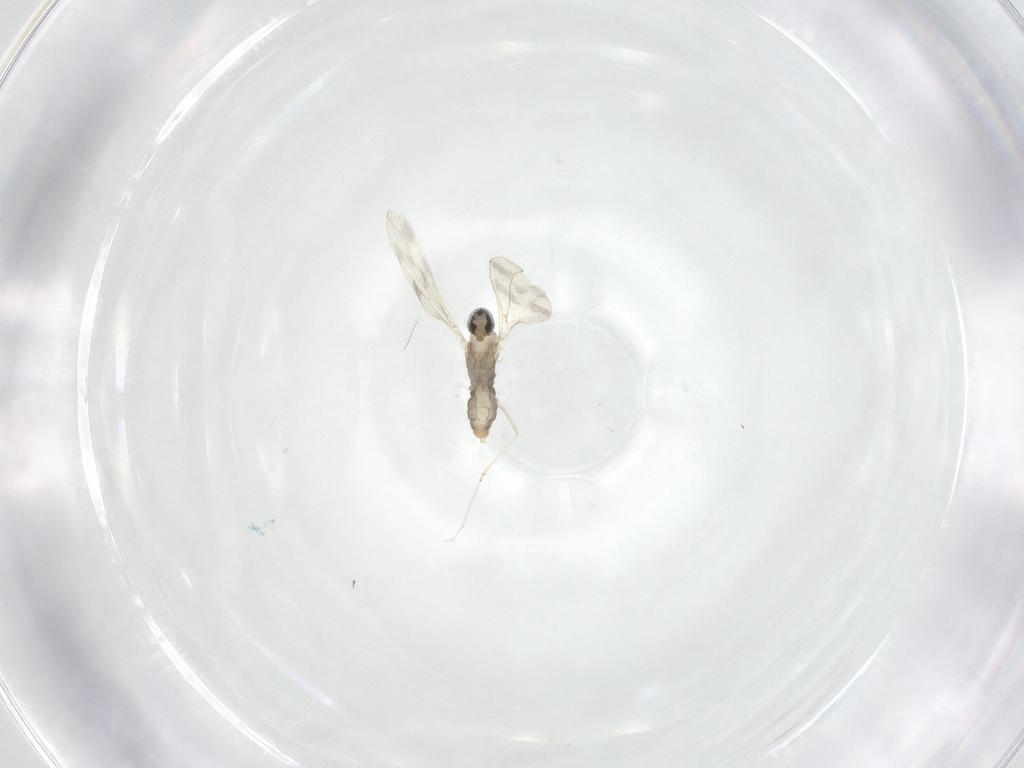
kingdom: Animalia
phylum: Arthropoda
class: Insecta
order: Diptera
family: Cecidomyiidae
